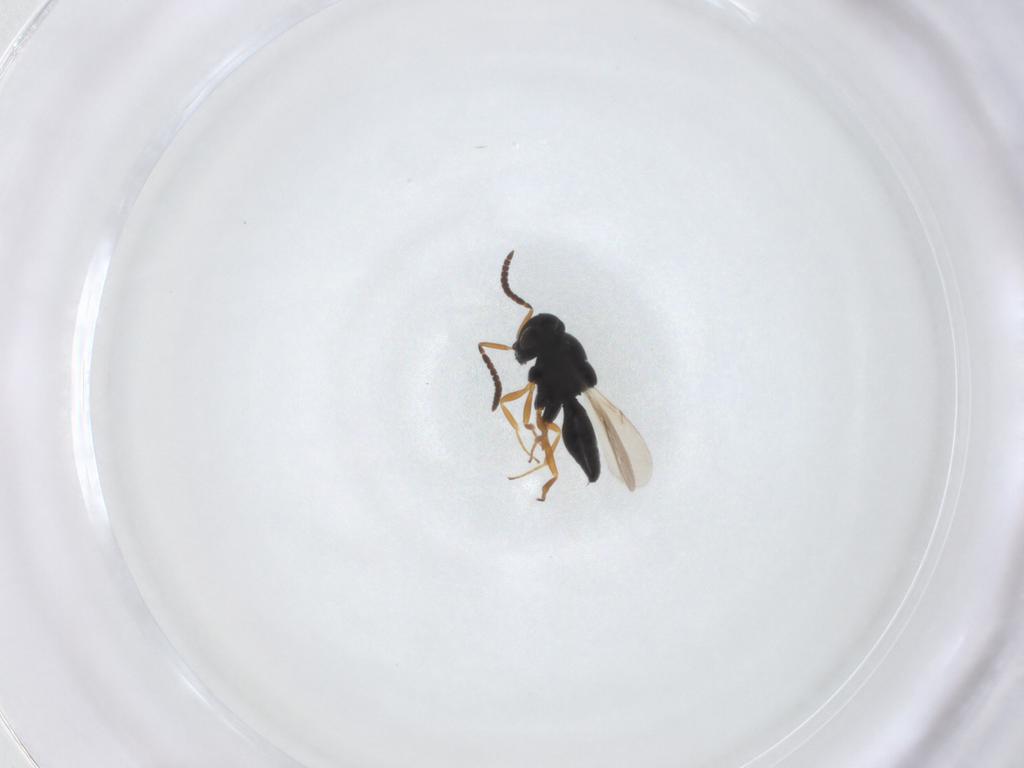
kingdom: Animalia
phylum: Arthropoda
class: Insecta
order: Hymenoptera
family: Scelionidae
